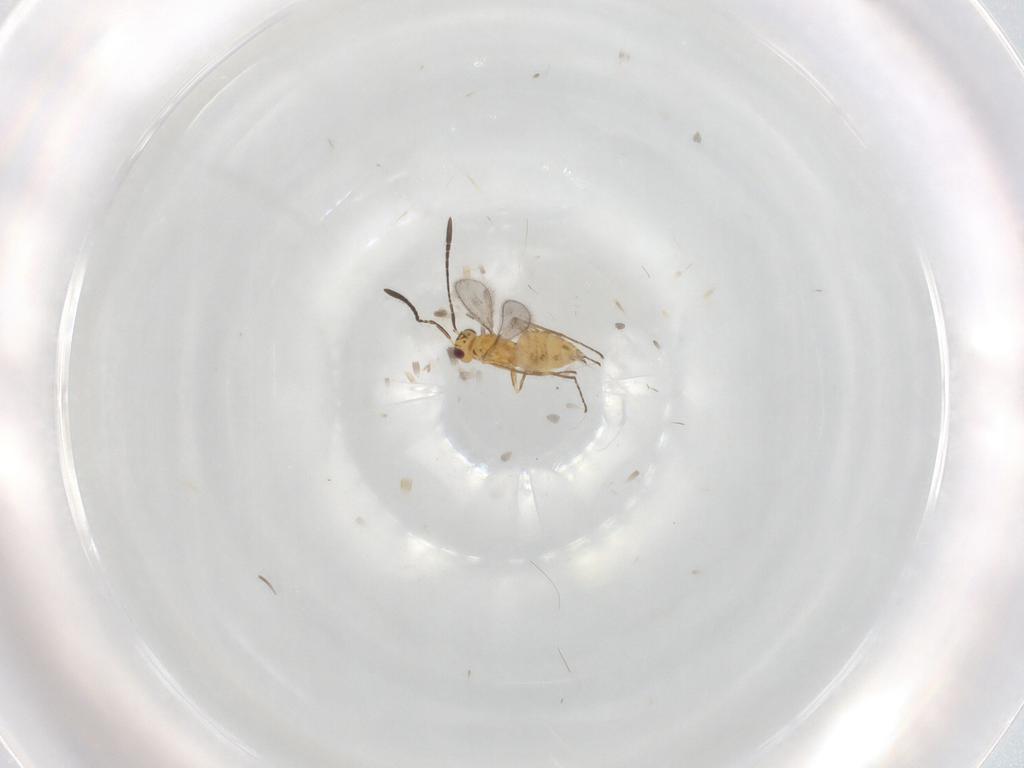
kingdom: Animalia
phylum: Arthropoda
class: Insecta
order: Hymenoptera
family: Mymaridae
